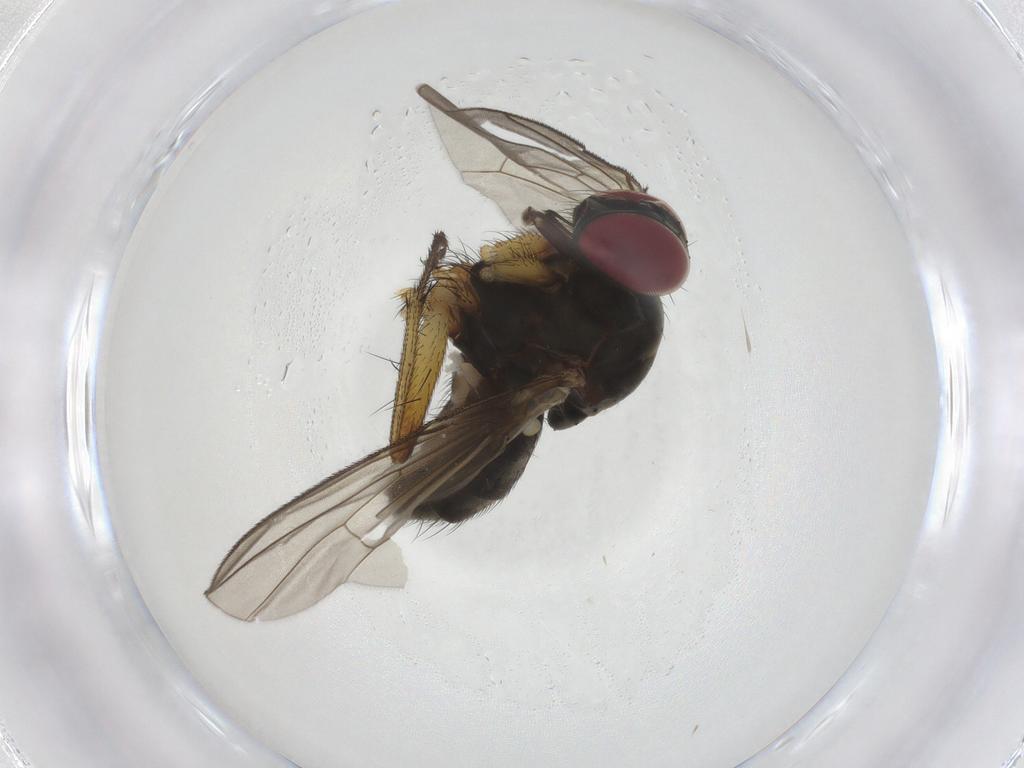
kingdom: Animalia
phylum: Arthropoda
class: Insecta
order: Diptera
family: Muscidae
